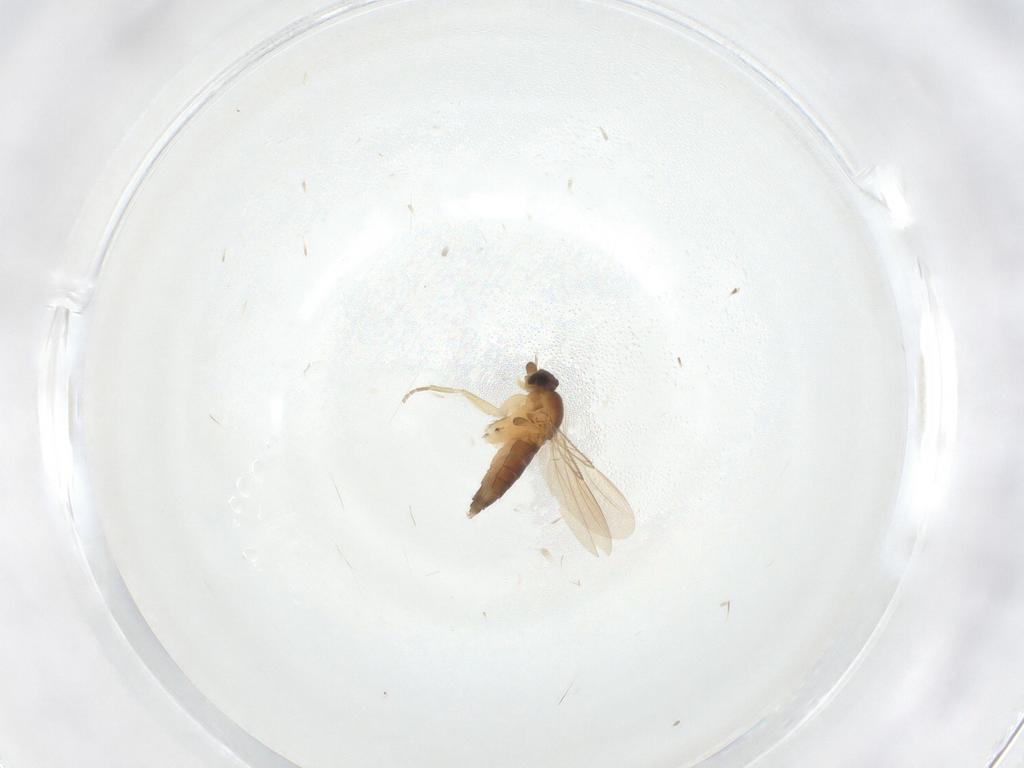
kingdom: Animalia
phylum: Arthropoda
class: Insecta
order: Diptera
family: Phoridae
